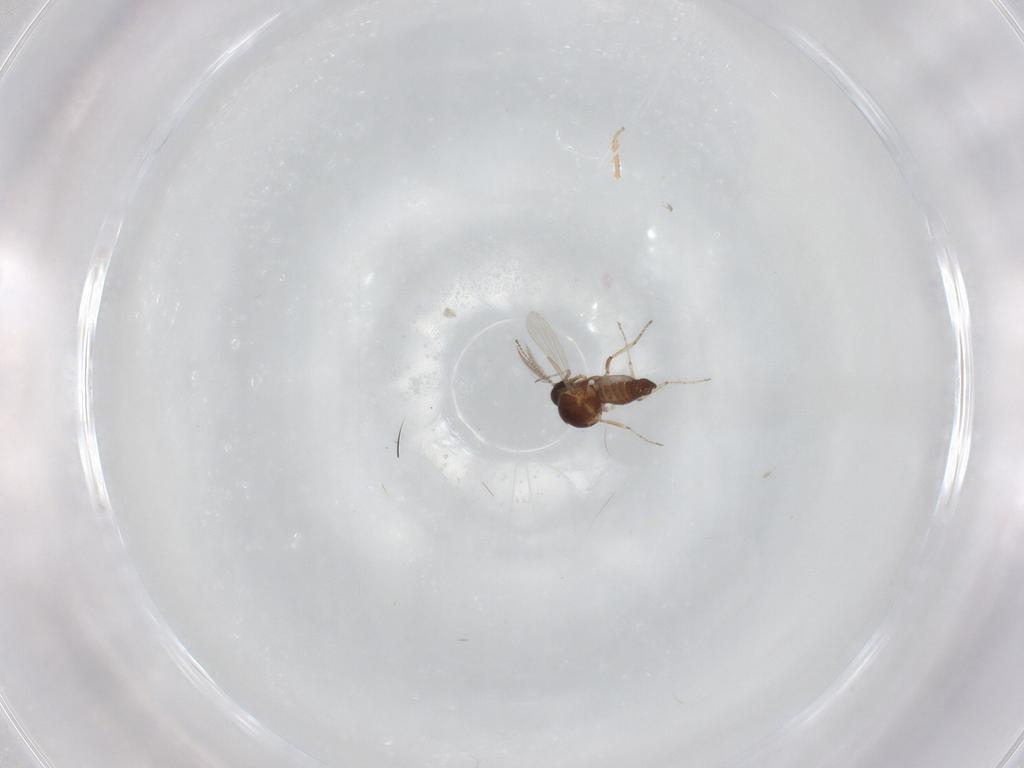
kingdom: Animalia
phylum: Arthropoda
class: Insecta
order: Diptera
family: Ceratopogonidae
